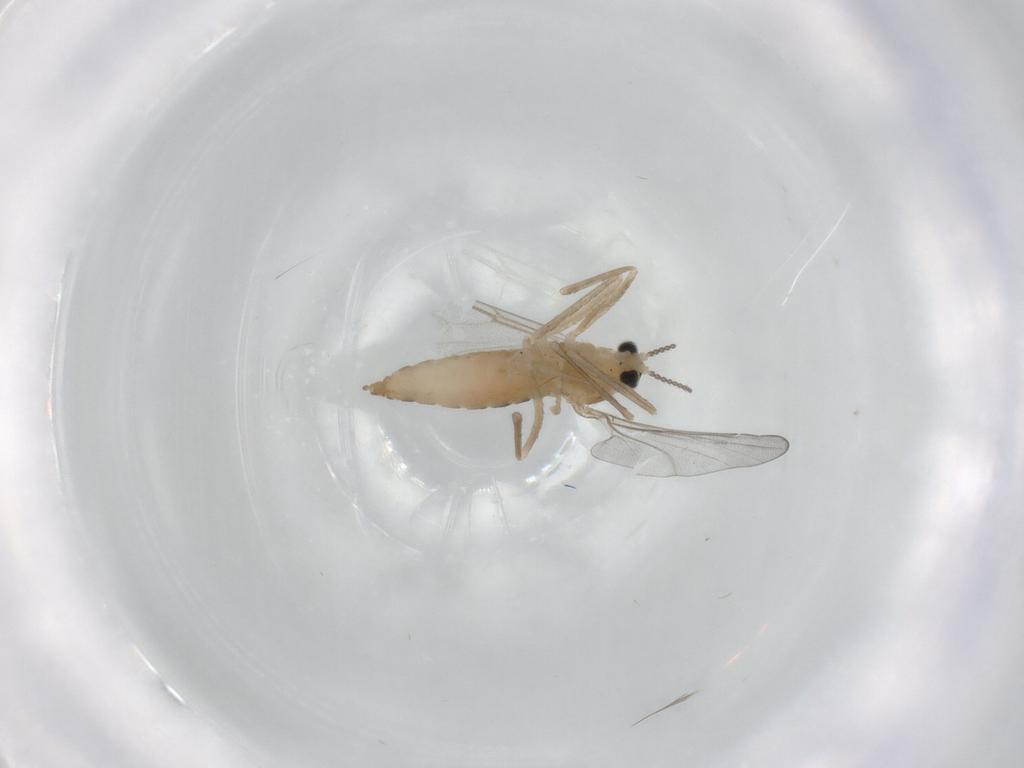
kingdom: Animalia
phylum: Arthropoda
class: Insecta
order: Diptera
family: Cecidomyiidae
